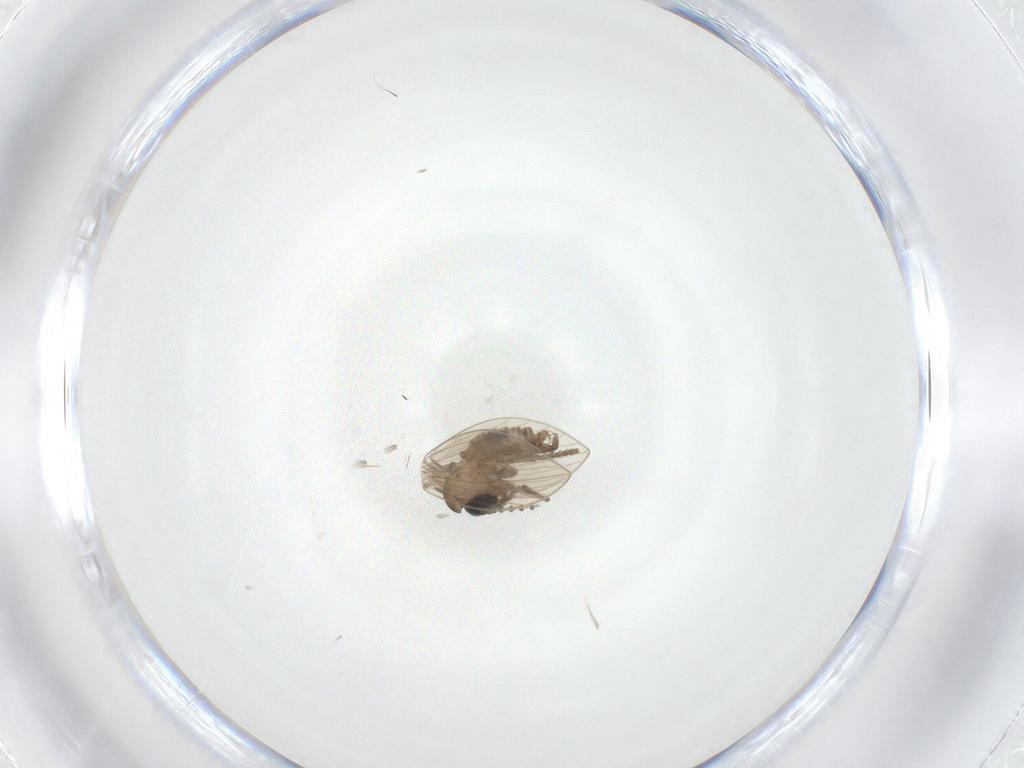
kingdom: Animalia
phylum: Arthropoda
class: Insecta
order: Diptera
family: Psychodidae
